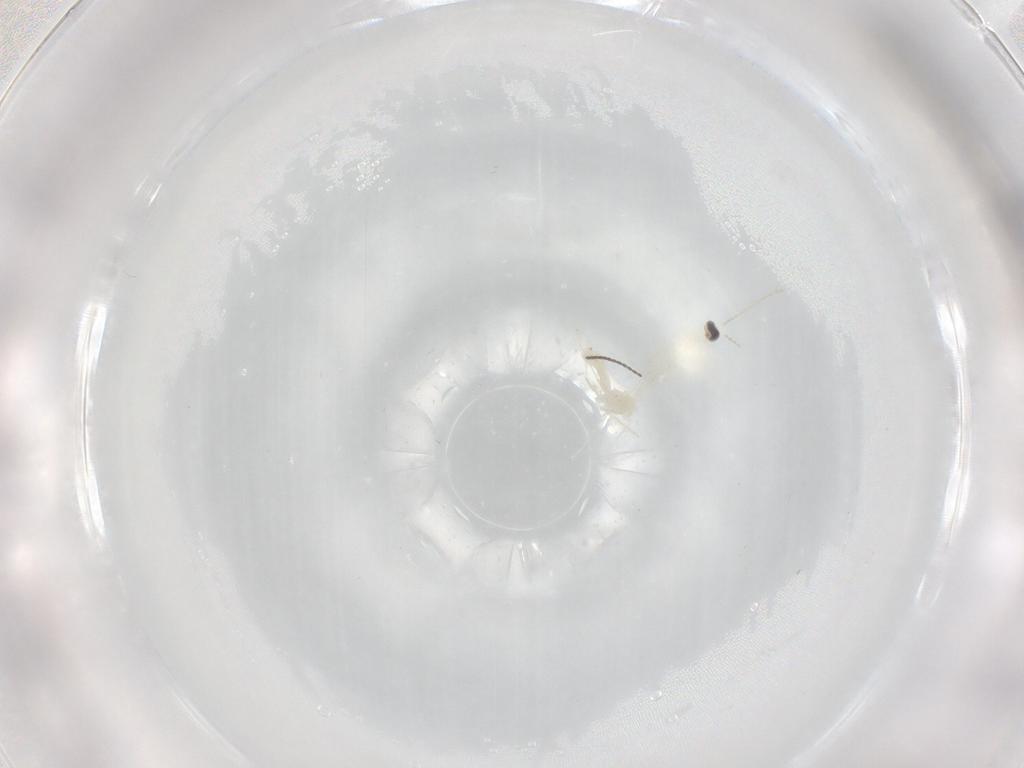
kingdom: Animalia
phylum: Arthropoda
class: Insecta
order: Diptera
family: Cecidomyiidae
